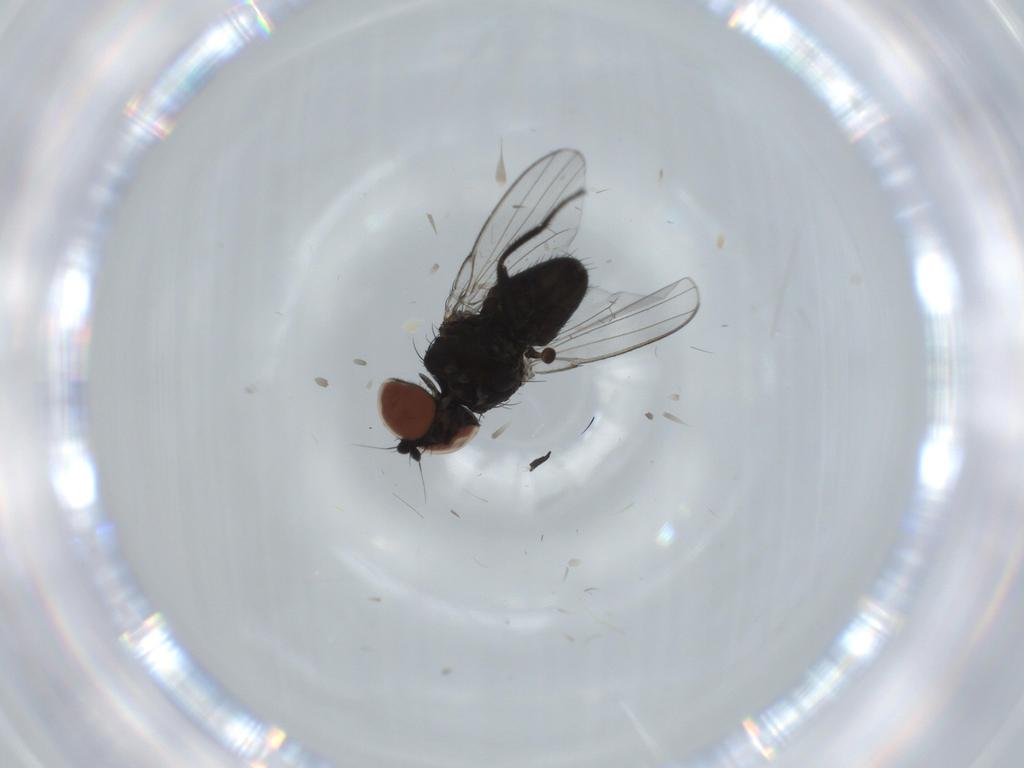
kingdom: Animalia
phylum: Arthropoda
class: Insecta
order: Diptera
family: Milichiidae
